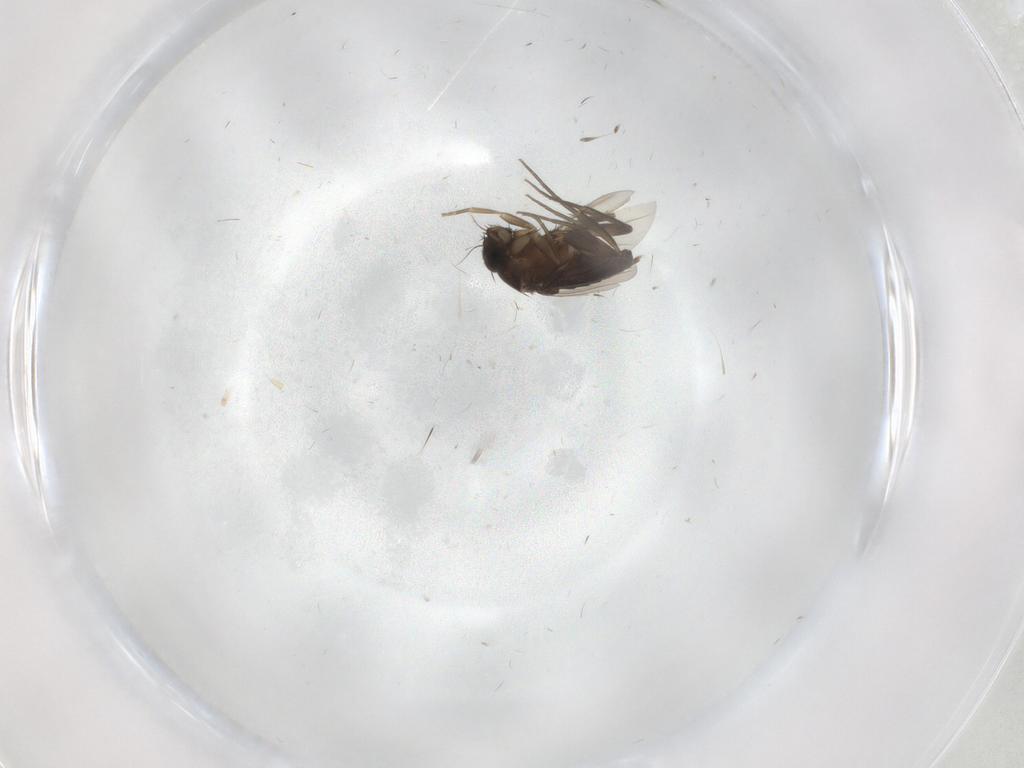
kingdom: Animalia
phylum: Arthropoda
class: Insecta
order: Diptera
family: Phoridae
